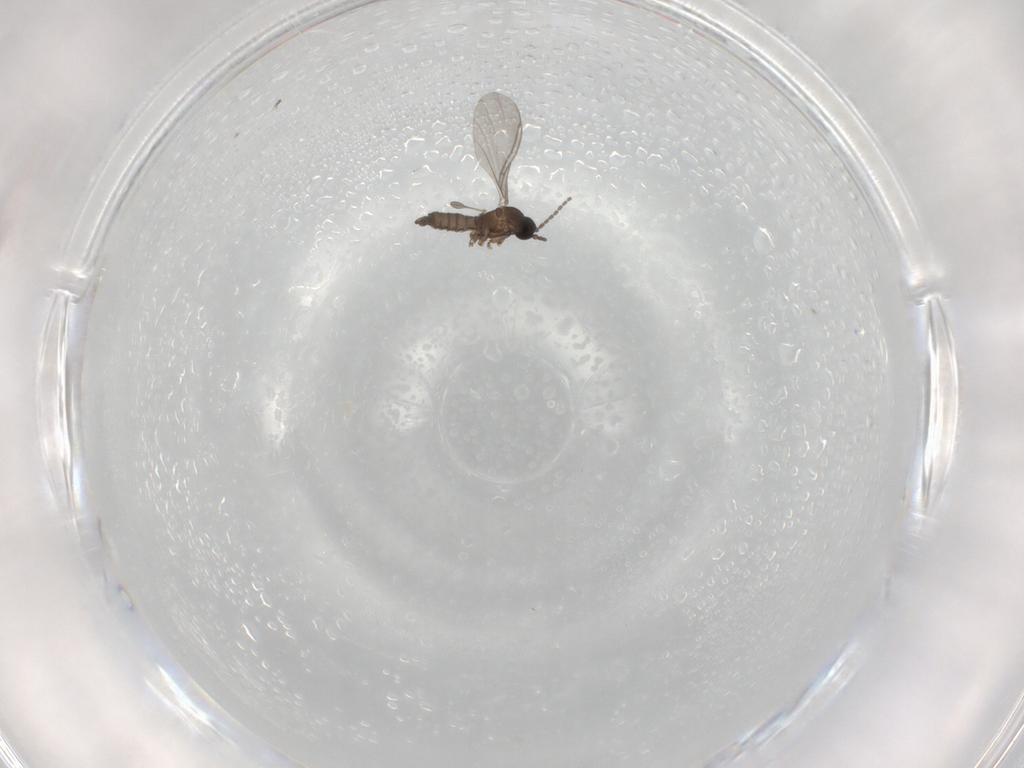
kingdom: Animalia
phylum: Arthropoda
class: Insecta
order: Diptera
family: Sciaridae
